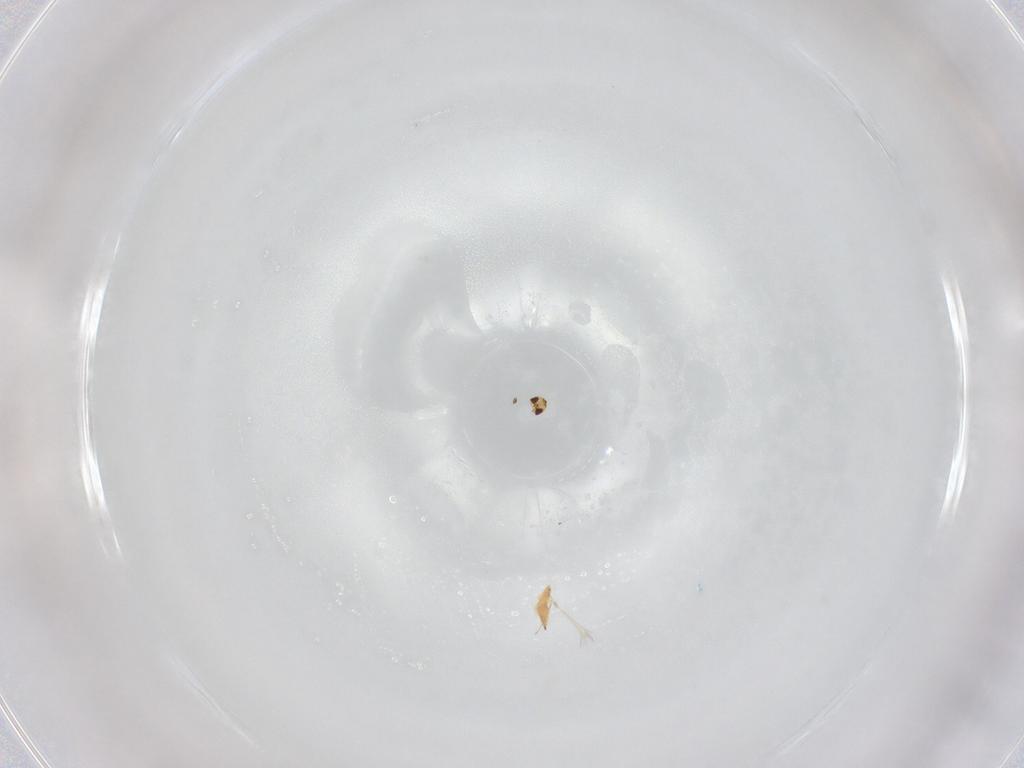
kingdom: Animalia
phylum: Arthropoda
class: Insecta
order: Hymenoptera
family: Mymaridae
